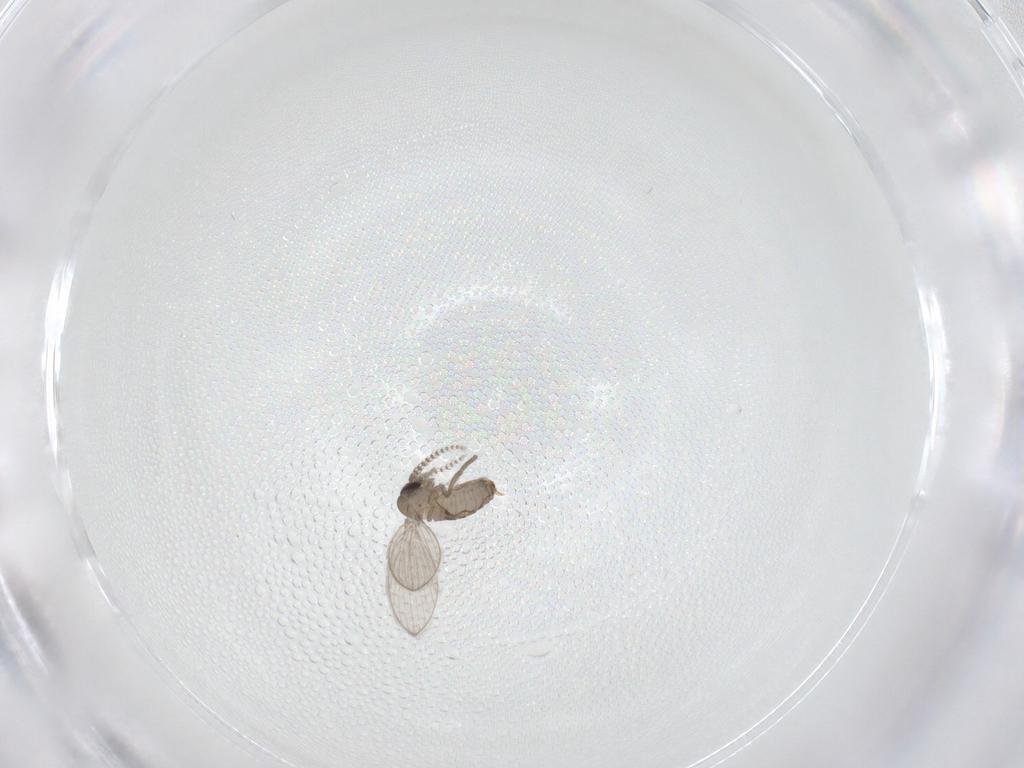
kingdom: Animalia
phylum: Arthropoda
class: Insecta
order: Diptera
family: Psychodidae
